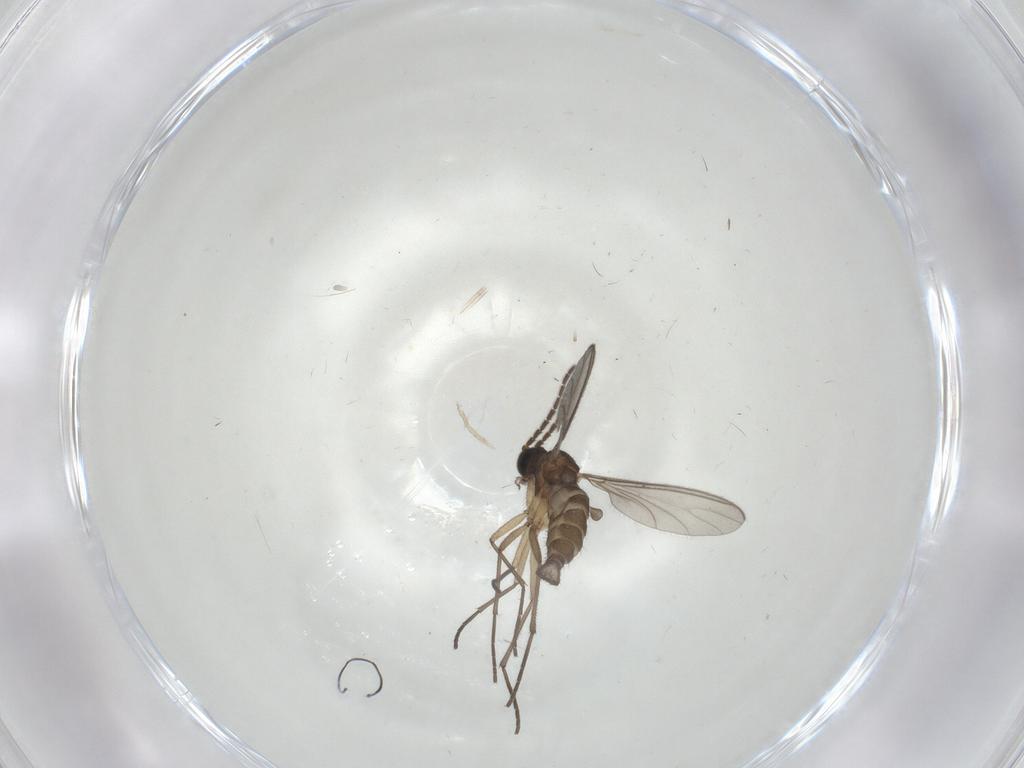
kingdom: Animalia
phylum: Arthropoda
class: Insecta
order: Diptera
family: Sciaridae
